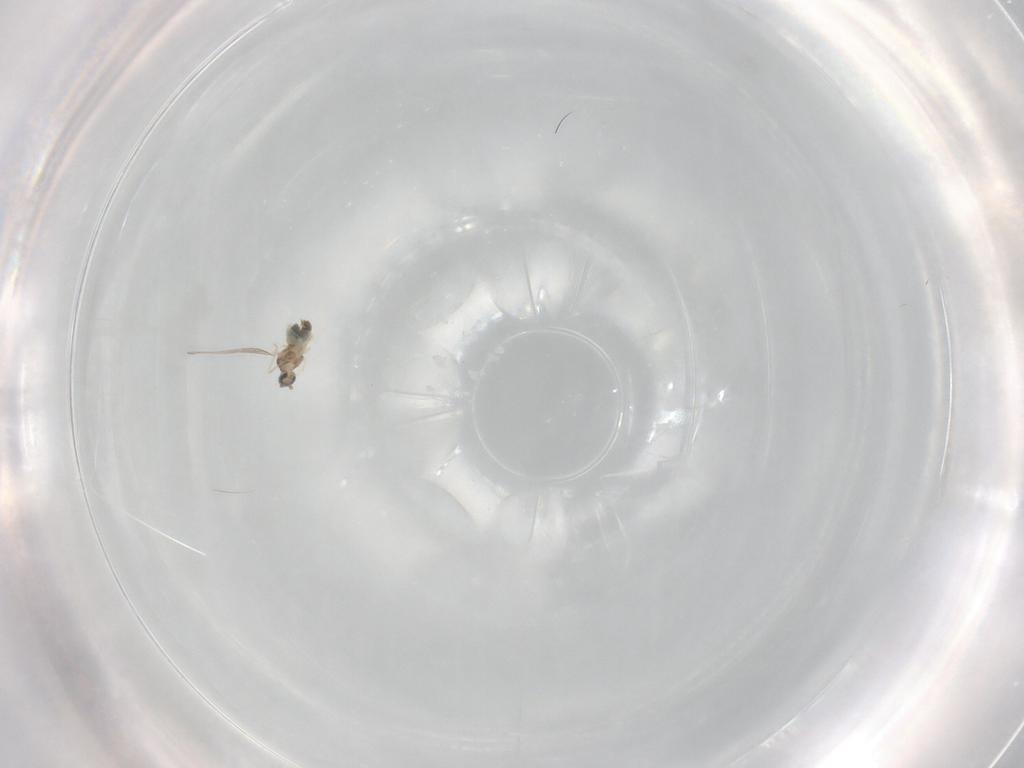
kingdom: Animalia
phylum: Arthropoda
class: Insecta
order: Diptera
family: Cecidomyiidae
